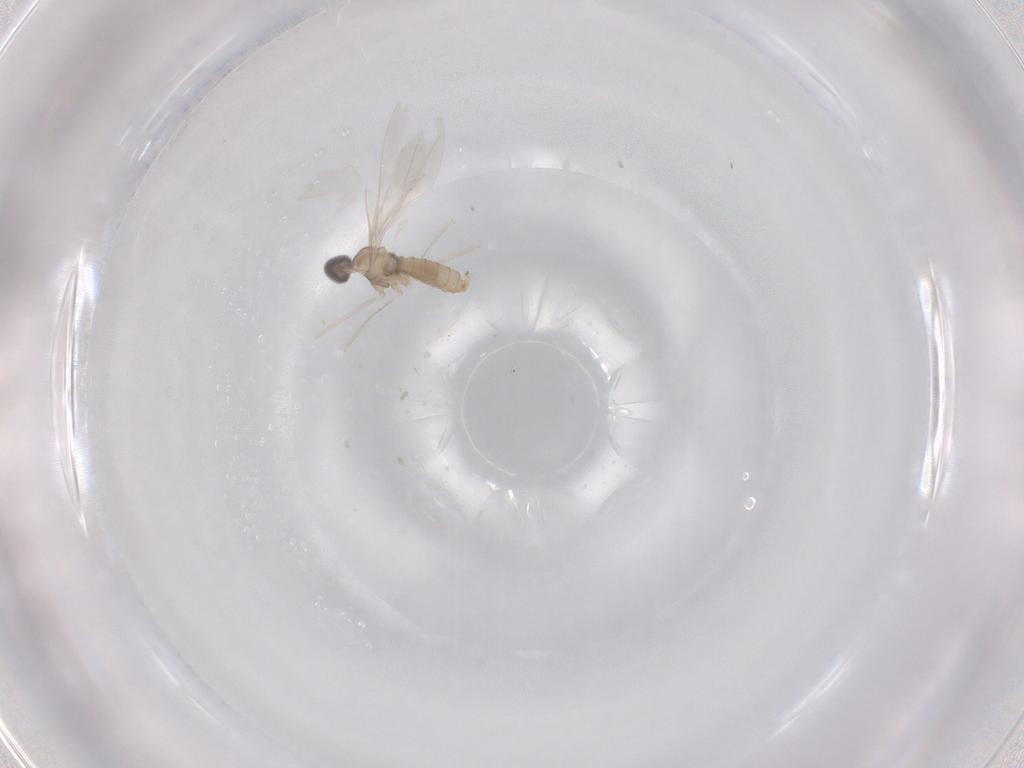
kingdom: Animalia
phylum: Arthropoda
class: Insecta
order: Diptera
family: Cecidomyiidae
